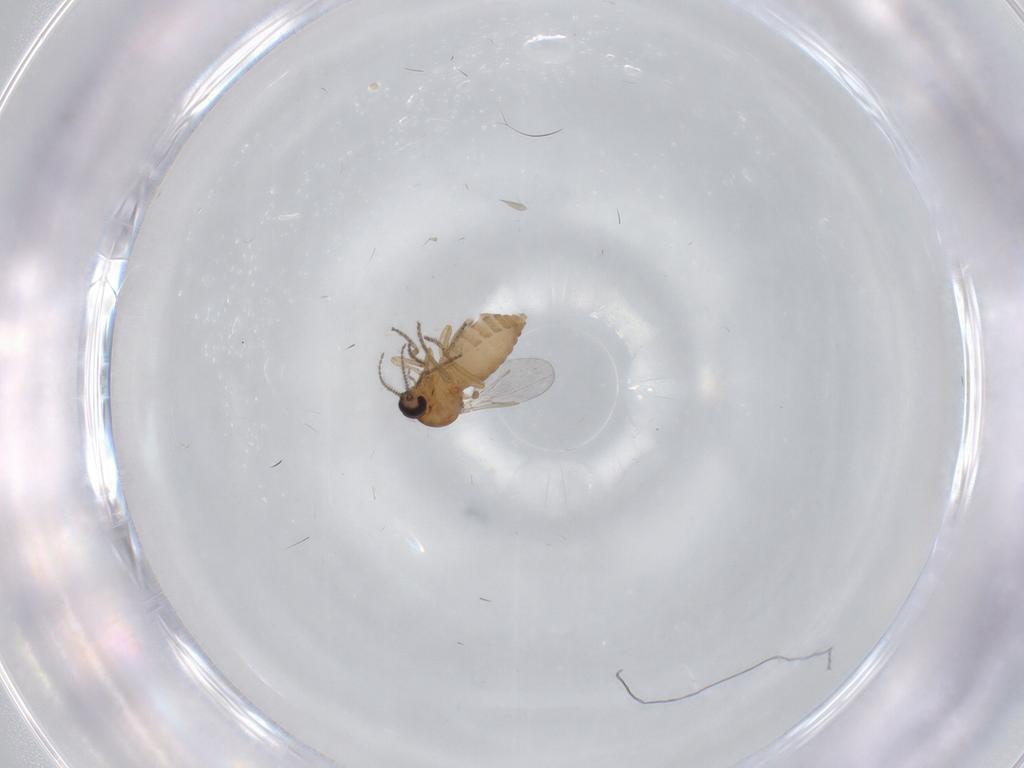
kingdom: Animalia
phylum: Arthropoda
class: Insecta
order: Diptera
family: Ceratopogonidae
